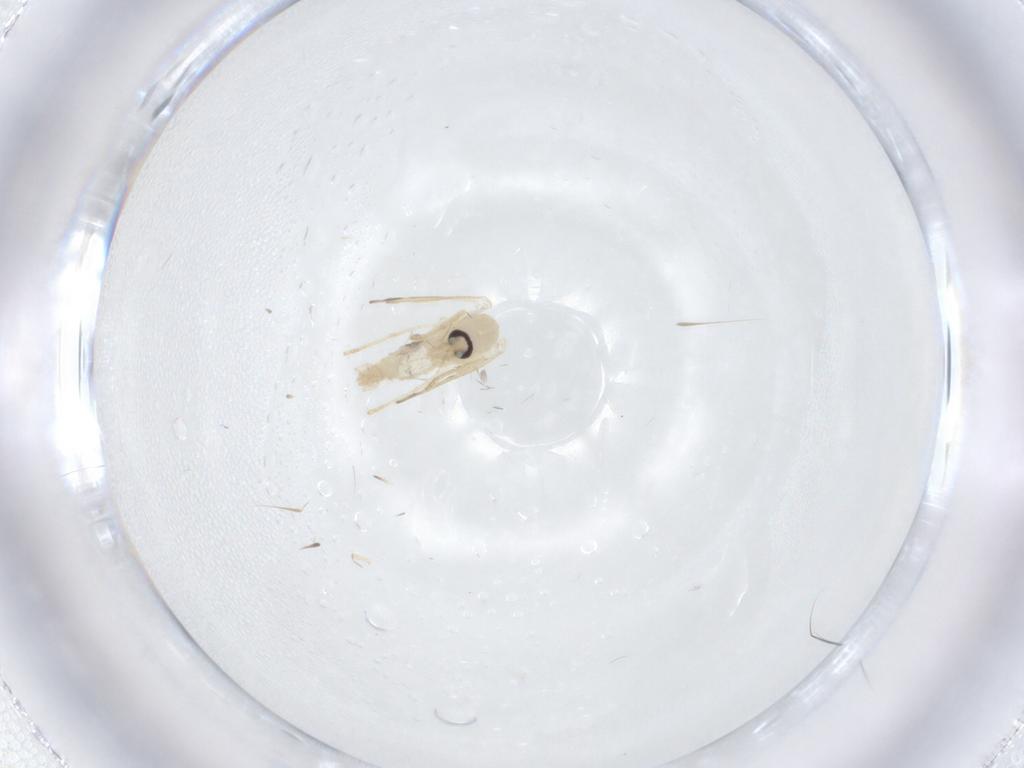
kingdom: Animalia
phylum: Arthropoda
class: Insecta
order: Diptera
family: Psychodidae
